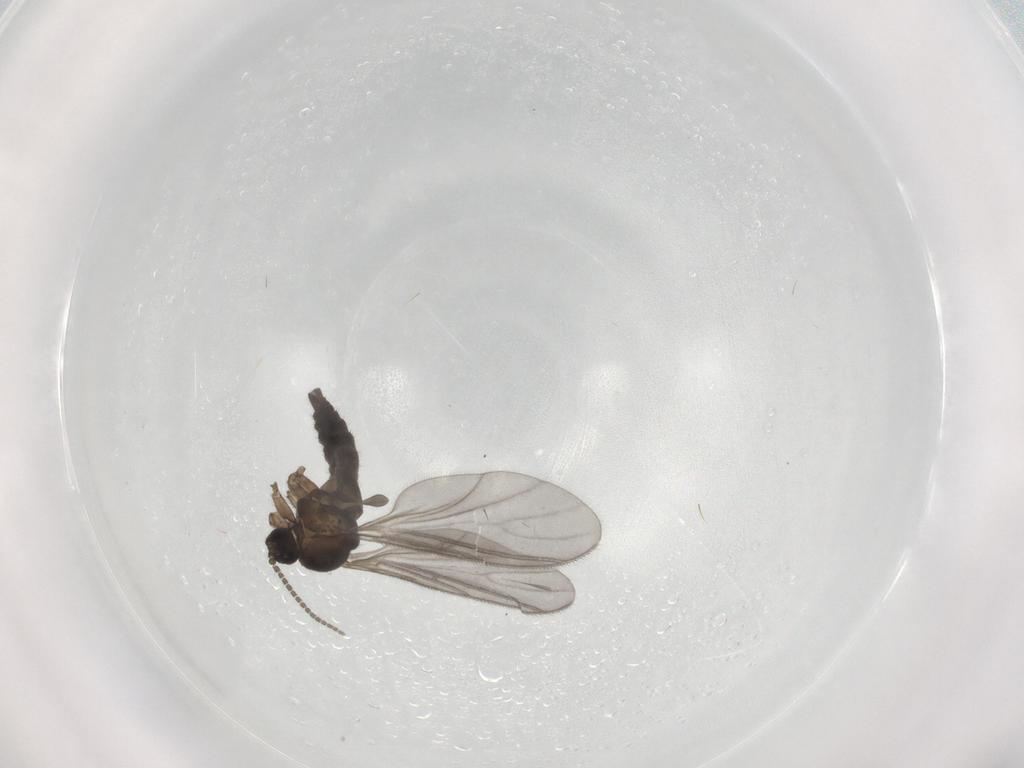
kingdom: Animalia
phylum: Arthropoda
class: Insecta
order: Diptera
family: Sciaridae
